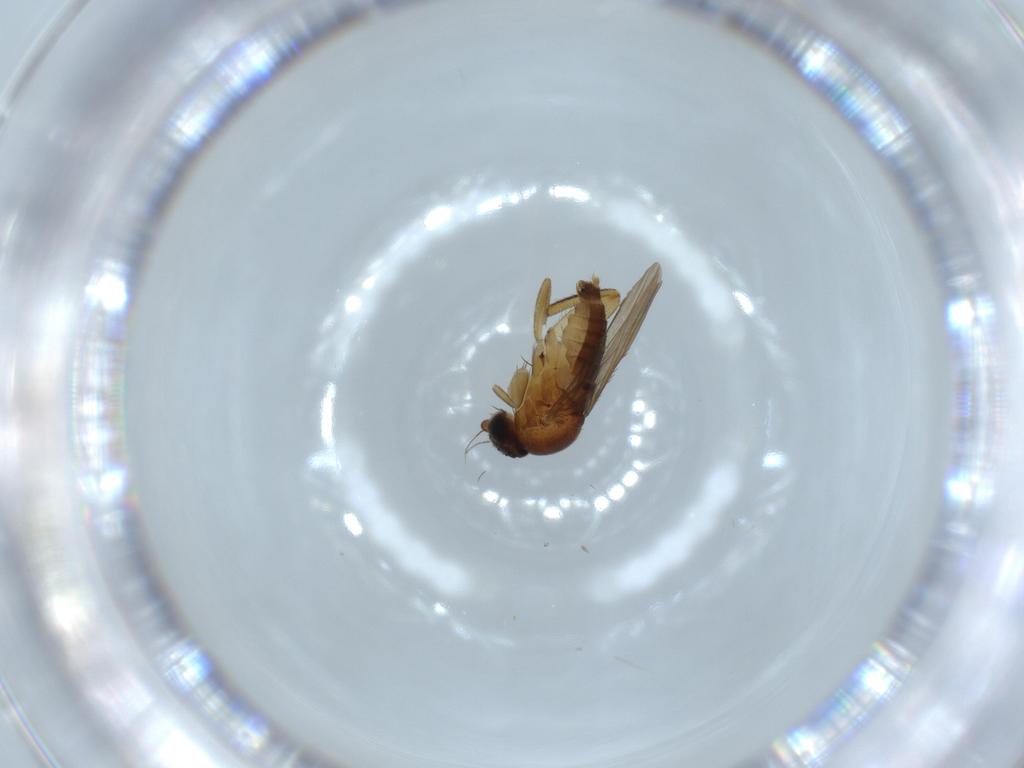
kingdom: Animalia
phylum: Arthropoda
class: Insecta
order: Diptera
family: Phoridae
